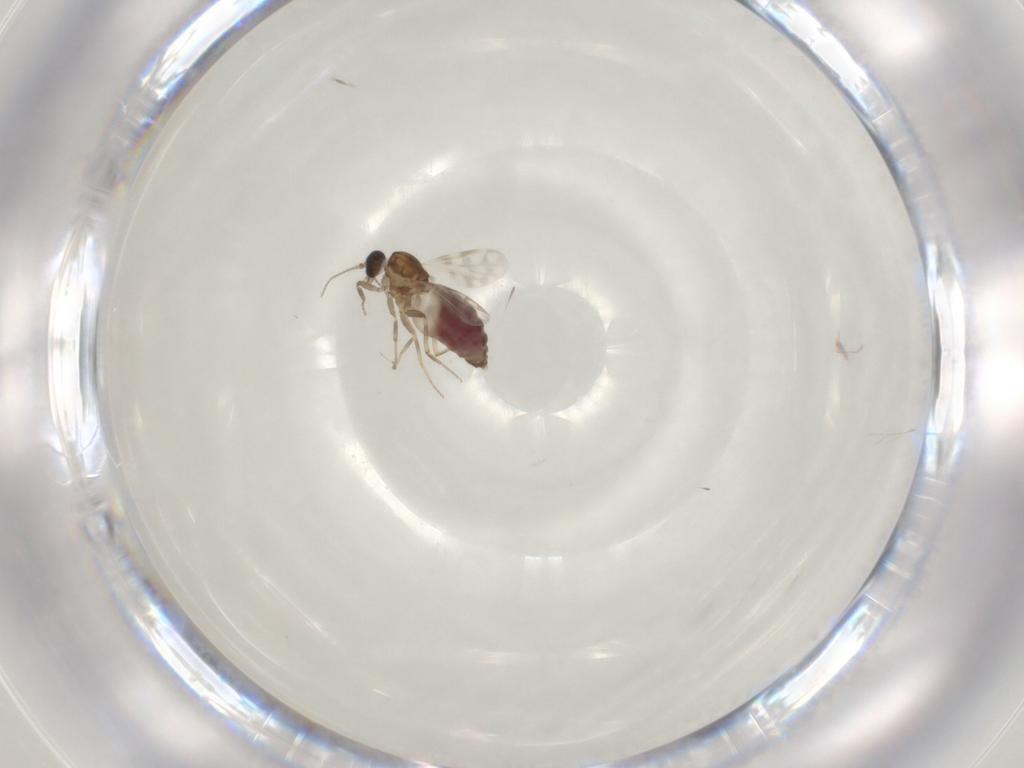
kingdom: Animalia
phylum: Arthropoda
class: Insecta
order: Diptera
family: Ceratopogonidae
